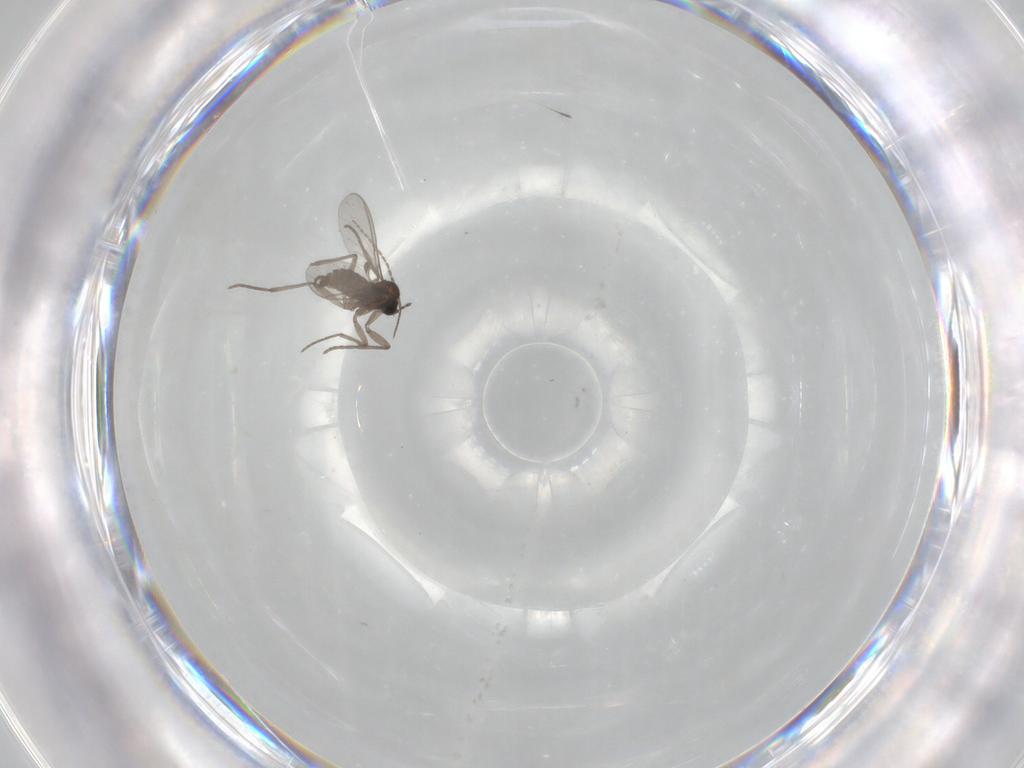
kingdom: Animalia
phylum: Arthropoda
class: Insecta
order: Diptera
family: Sciaridae
